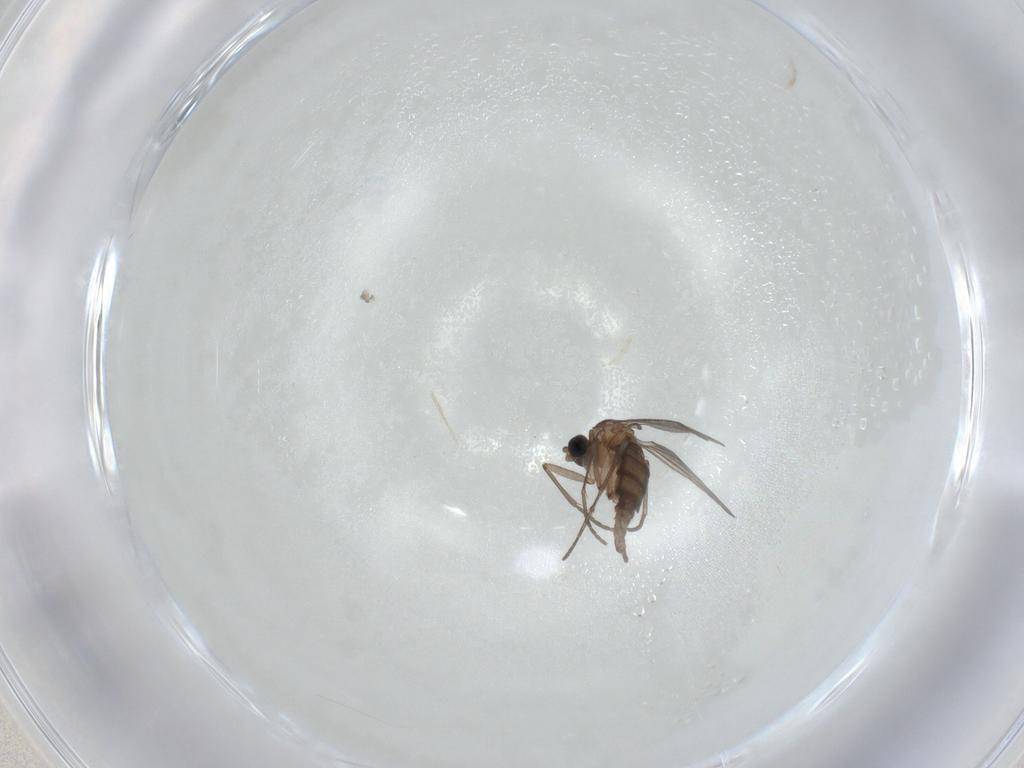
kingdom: Animalia
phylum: Arthropoda
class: Insecta
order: Diptera
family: Sciaridae
